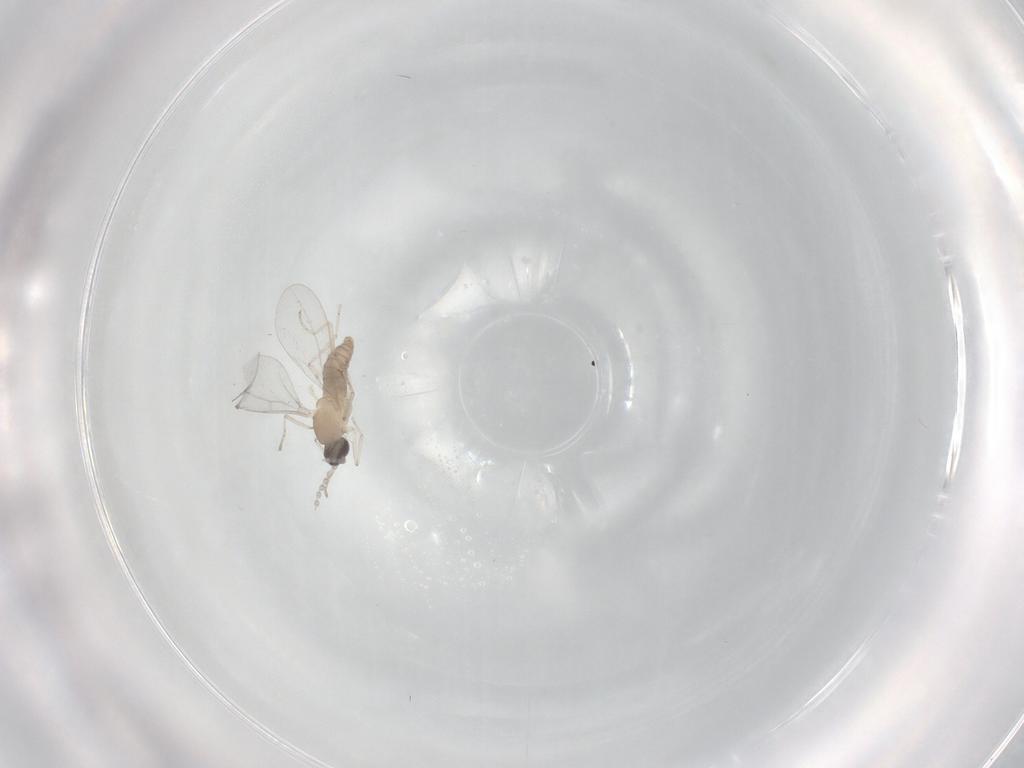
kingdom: Animalia
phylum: Arthropoda
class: Insecta
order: Diptera
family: Cecidomyiidae
